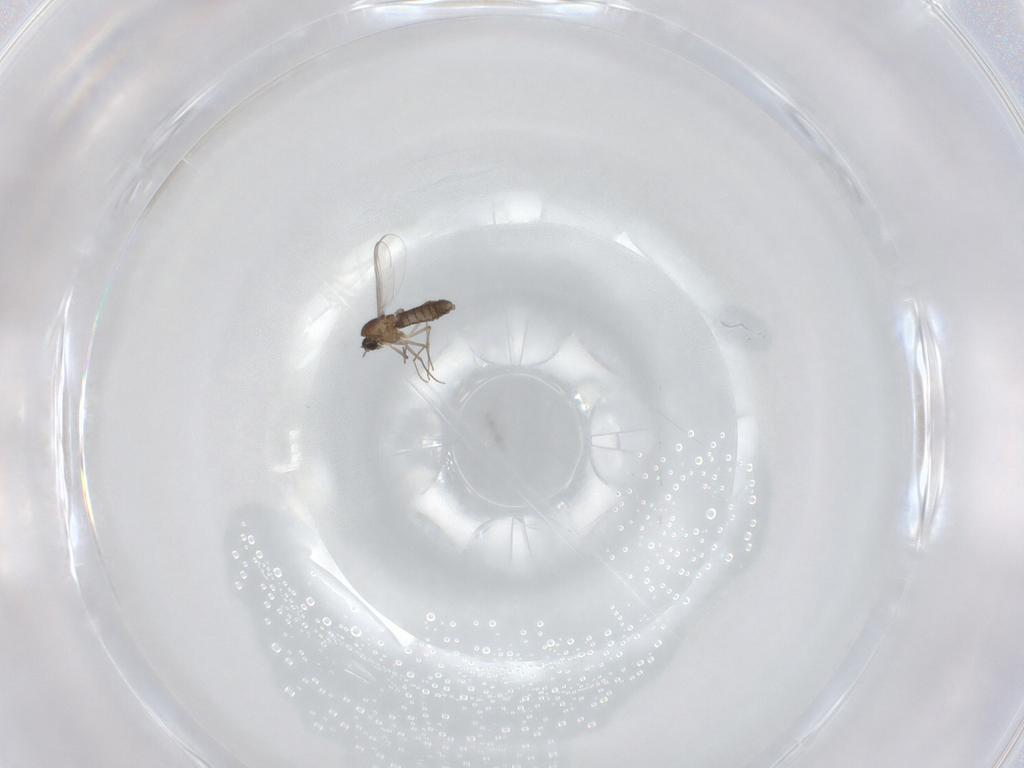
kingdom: Animalia
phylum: Arthropoda
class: Insecta
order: Diptera
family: Chironomidae
